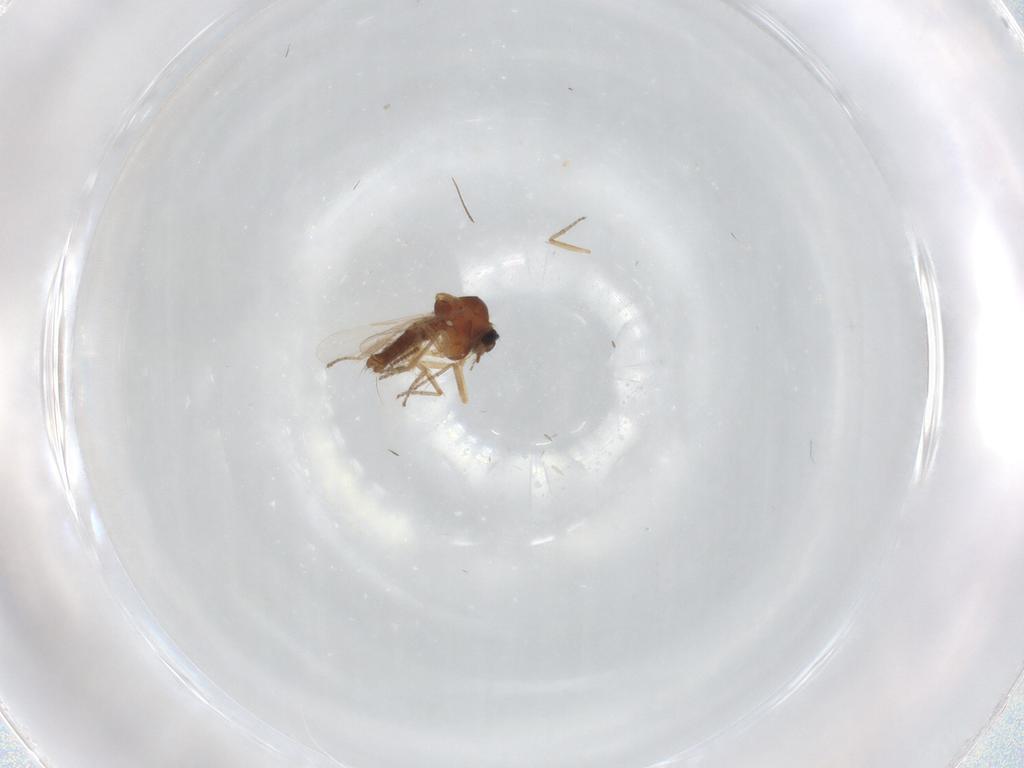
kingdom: Animalia
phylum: Arthropoda
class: Insecta
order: Diptera
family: Ceratopogonidae
